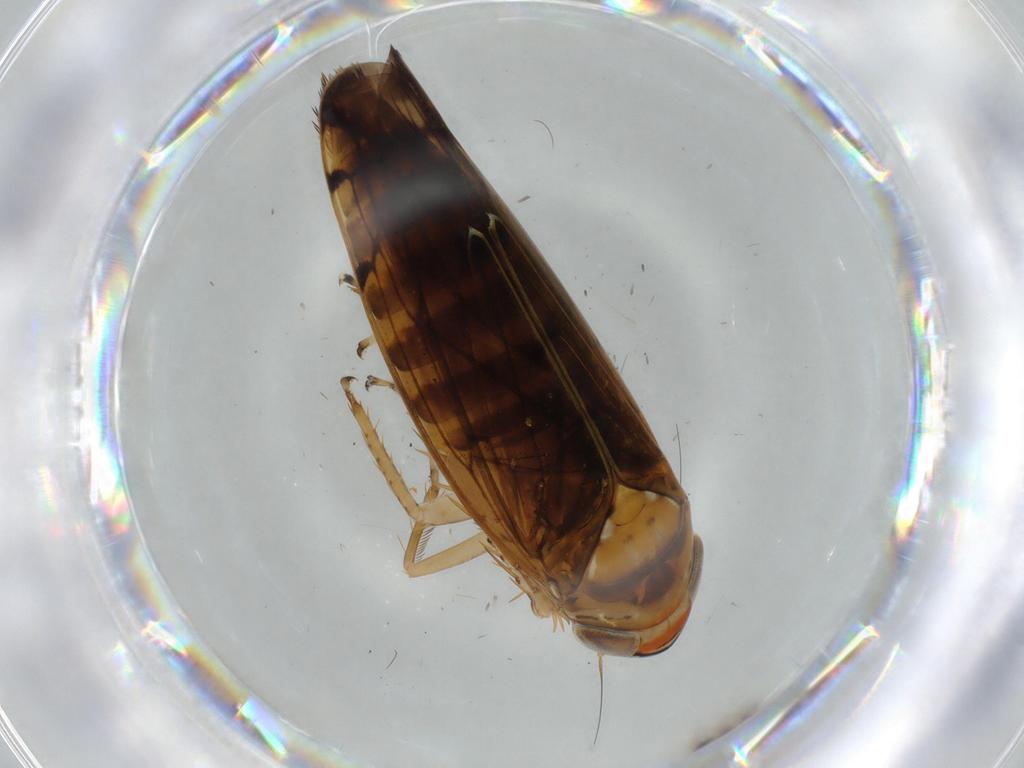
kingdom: Animalia
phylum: Arthropoda
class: Insecta
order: Hemiptera
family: Cicadellidae
